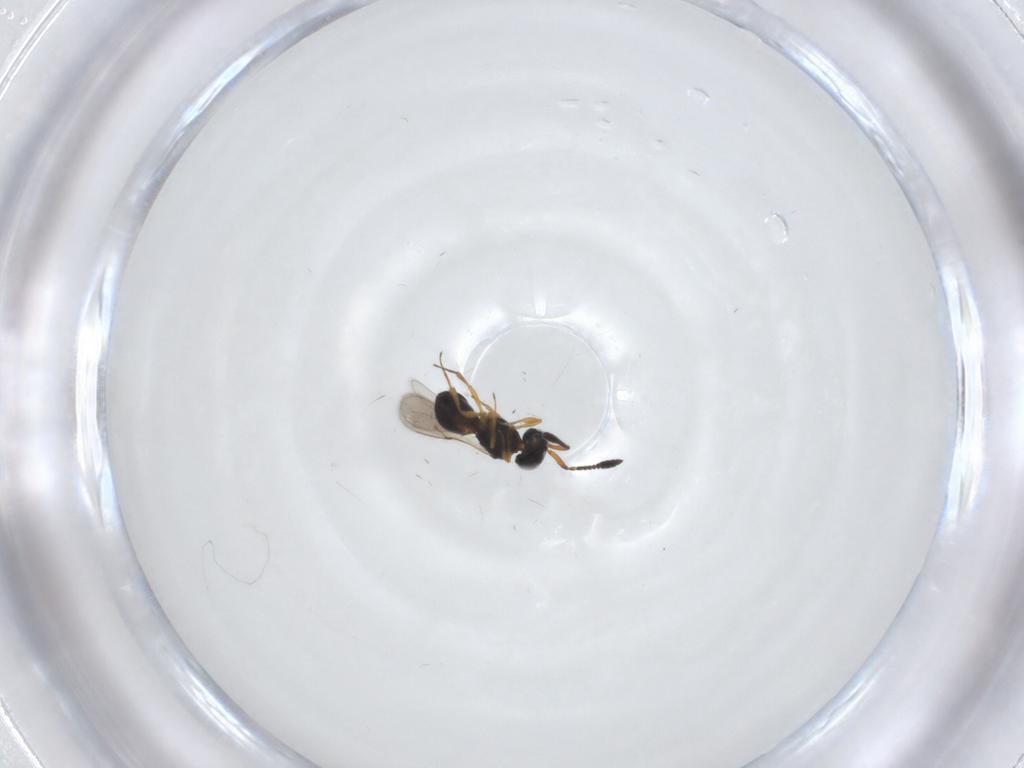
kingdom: Animalia
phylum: Arthropoda
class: Insecta
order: Hymenoptera
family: Scelionidae
